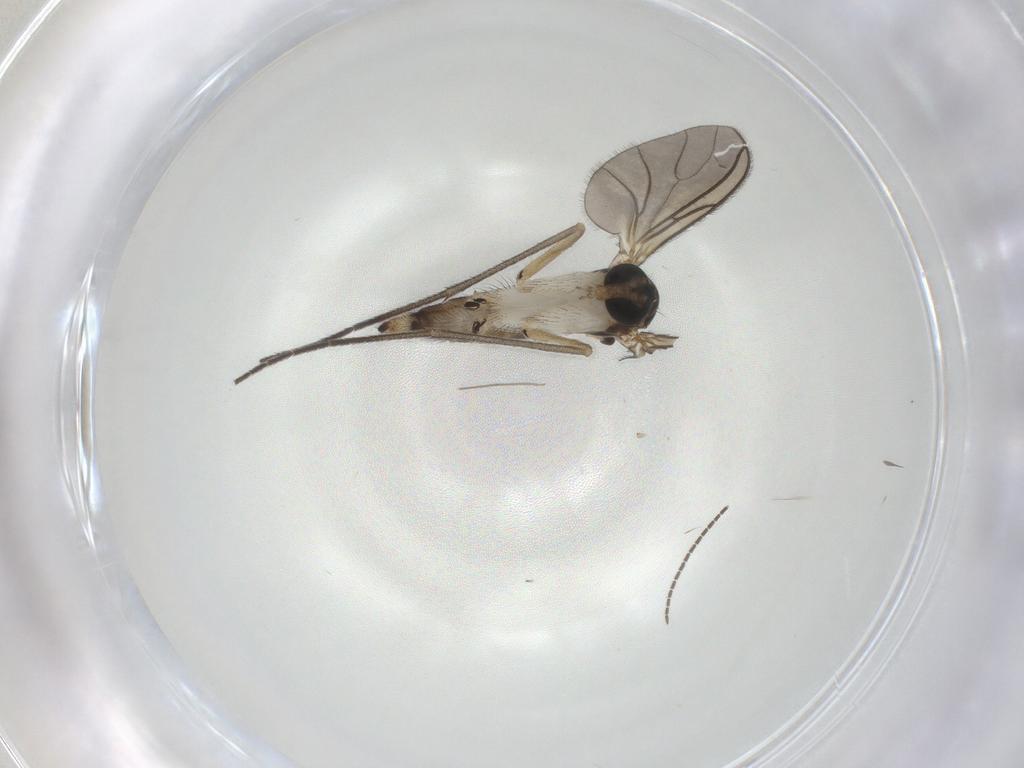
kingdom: Animalia
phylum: Arthropoda
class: Insecta
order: Diptera
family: Sciaridae
